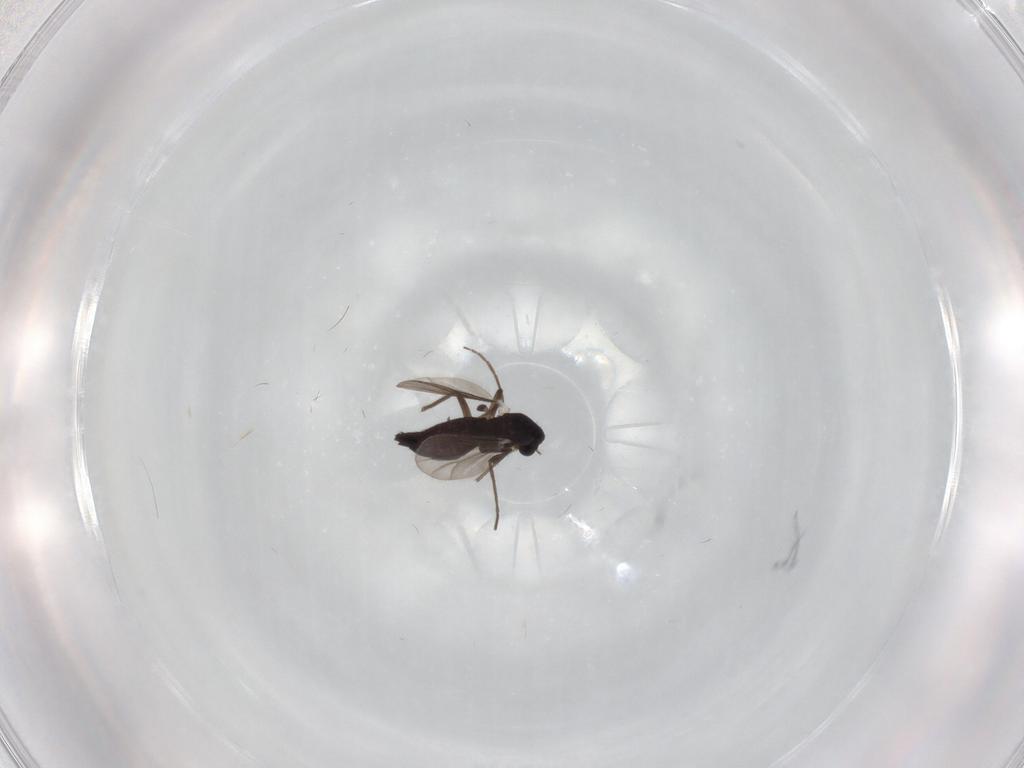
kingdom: Animalia
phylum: Arthropoda
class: Insecta
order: Diptera
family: Chironomidae
